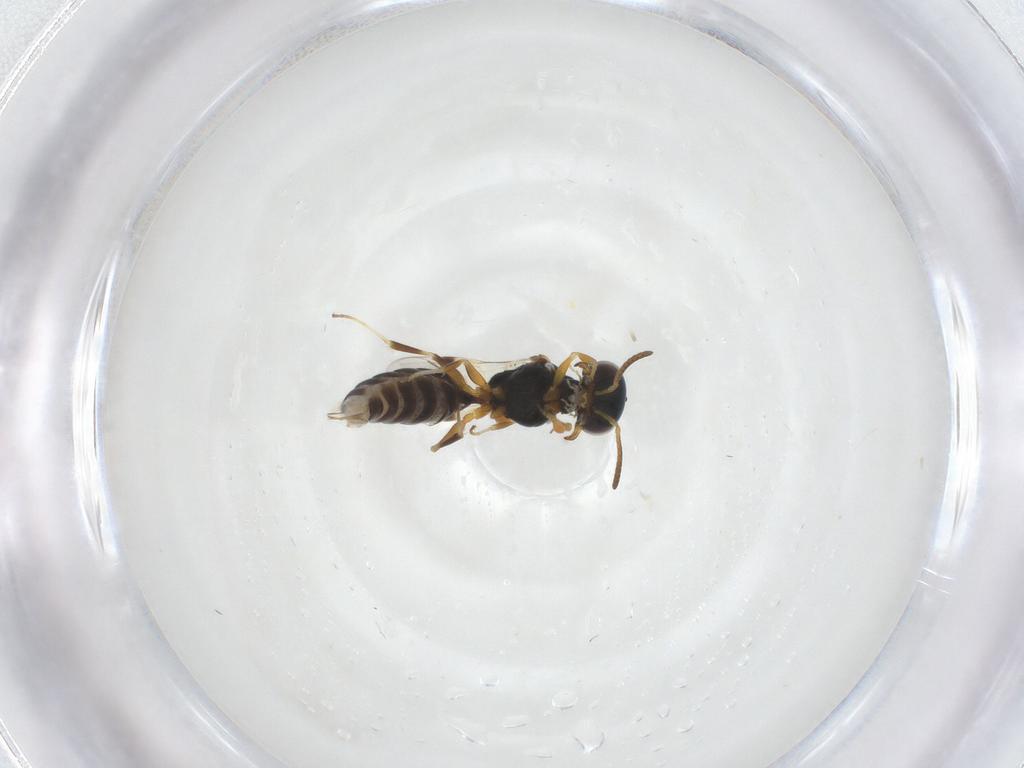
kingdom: Animalia
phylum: Arthropoda
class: Insecta
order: Hymenoptera
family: Pemphredonidae
